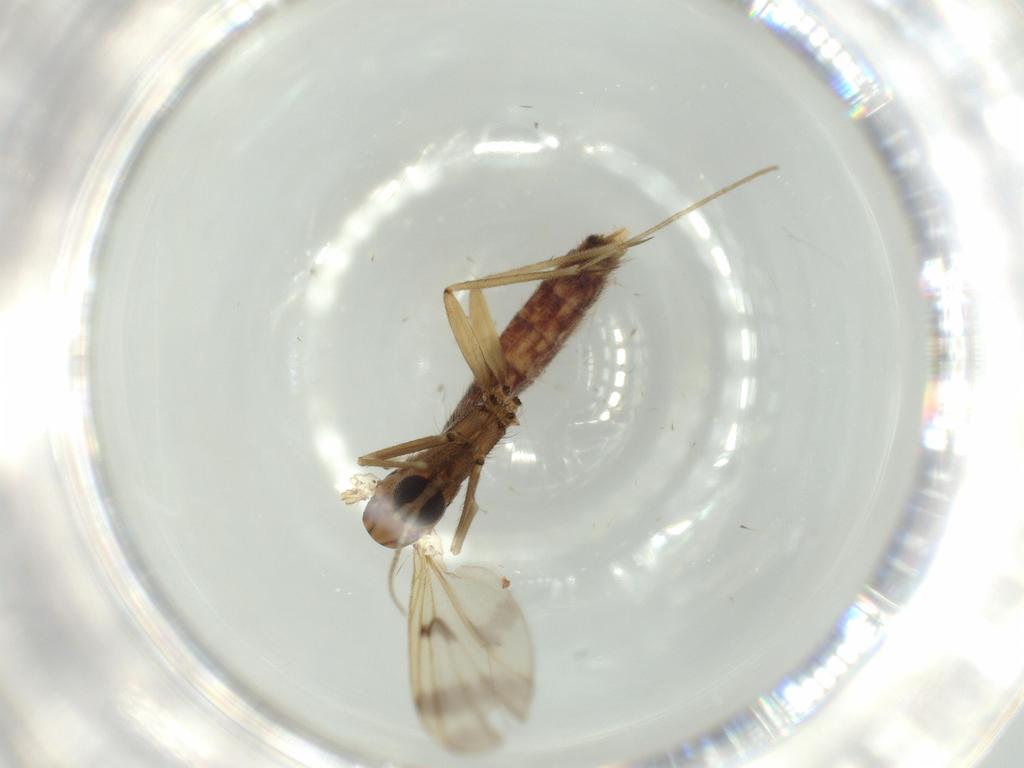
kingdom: Animalia
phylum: Arthropoda
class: Insecta
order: Diptera
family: Mycetophilidae
